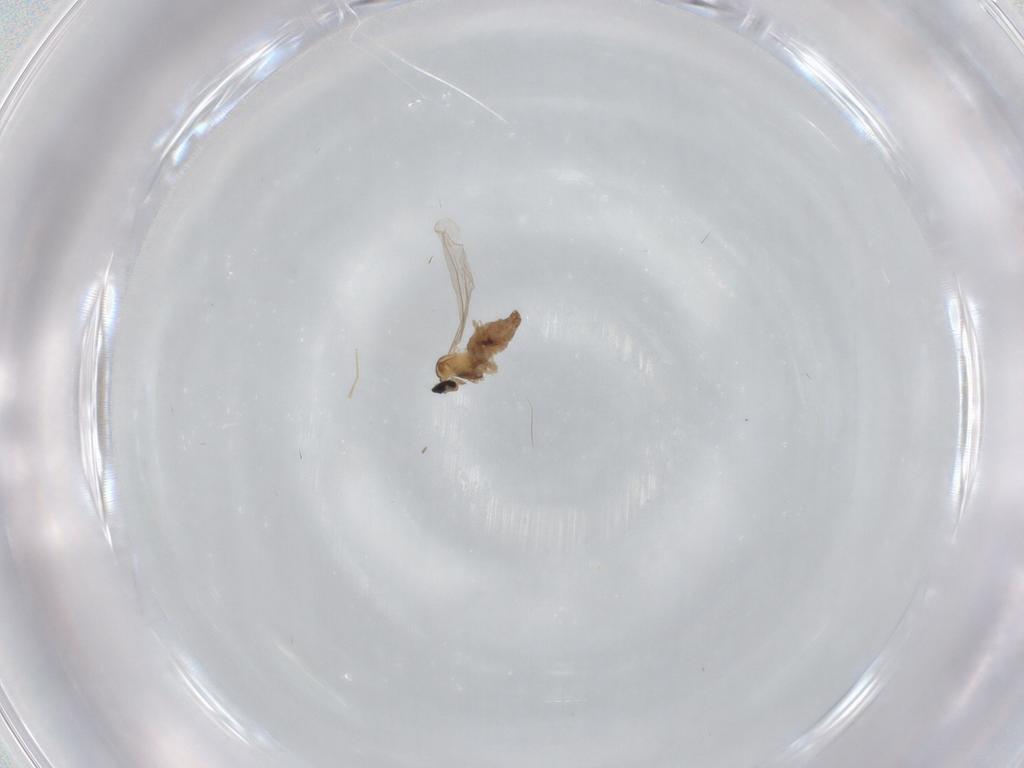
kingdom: Animalia
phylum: Arthropoda
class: Insecta
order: Diptera
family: Cecidomyiidae
